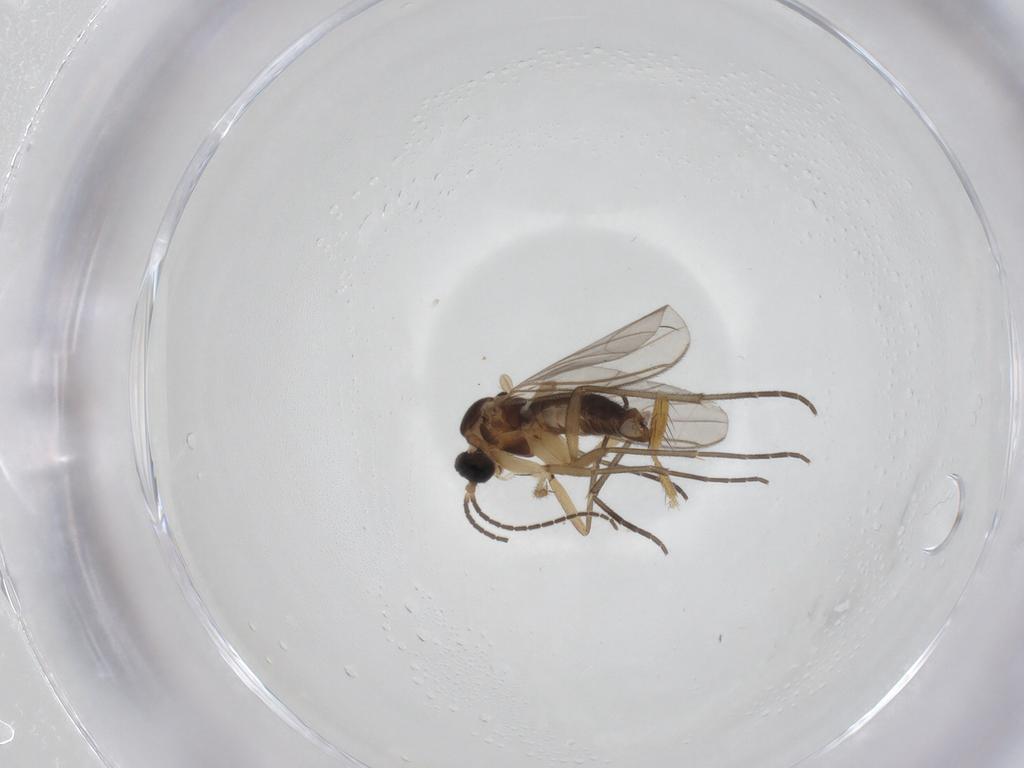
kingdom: Animalia
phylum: Arthropoda
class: Insecta
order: Diptera
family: Heleomyzidae
